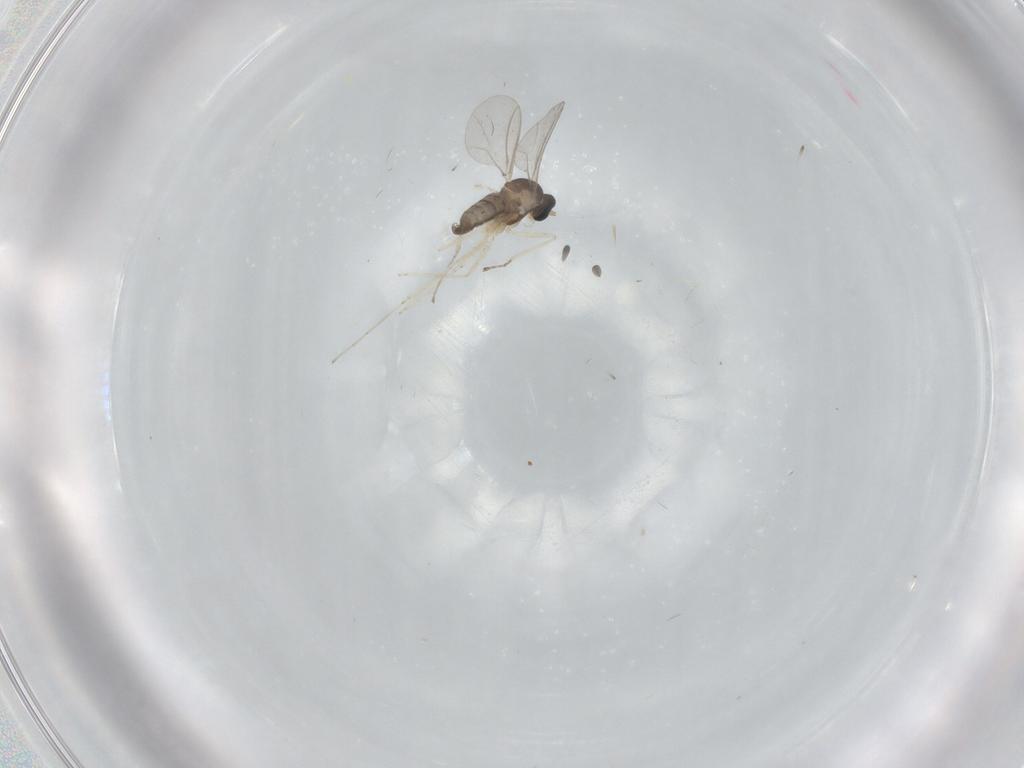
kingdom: Animalia
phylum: Arthropoda
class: Insecta
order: Diptera
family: Cecidomyiidae
